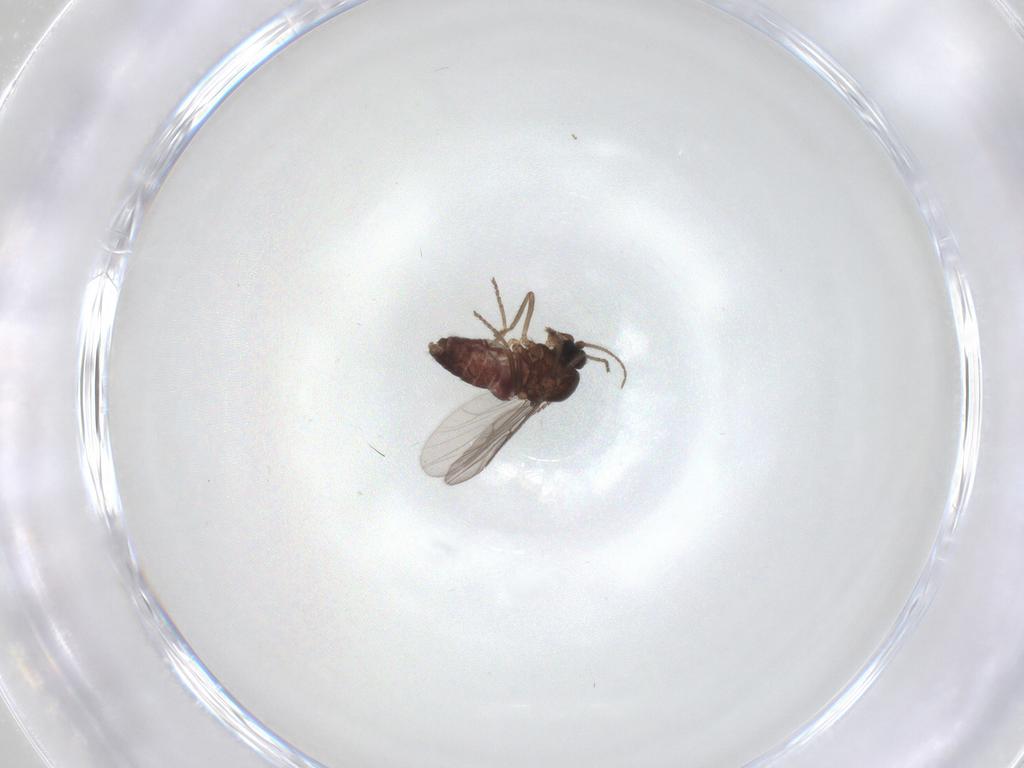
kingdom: Animalia
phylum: Arthropoda
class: Insecta
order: Diptera
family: Ceratopogonidae
